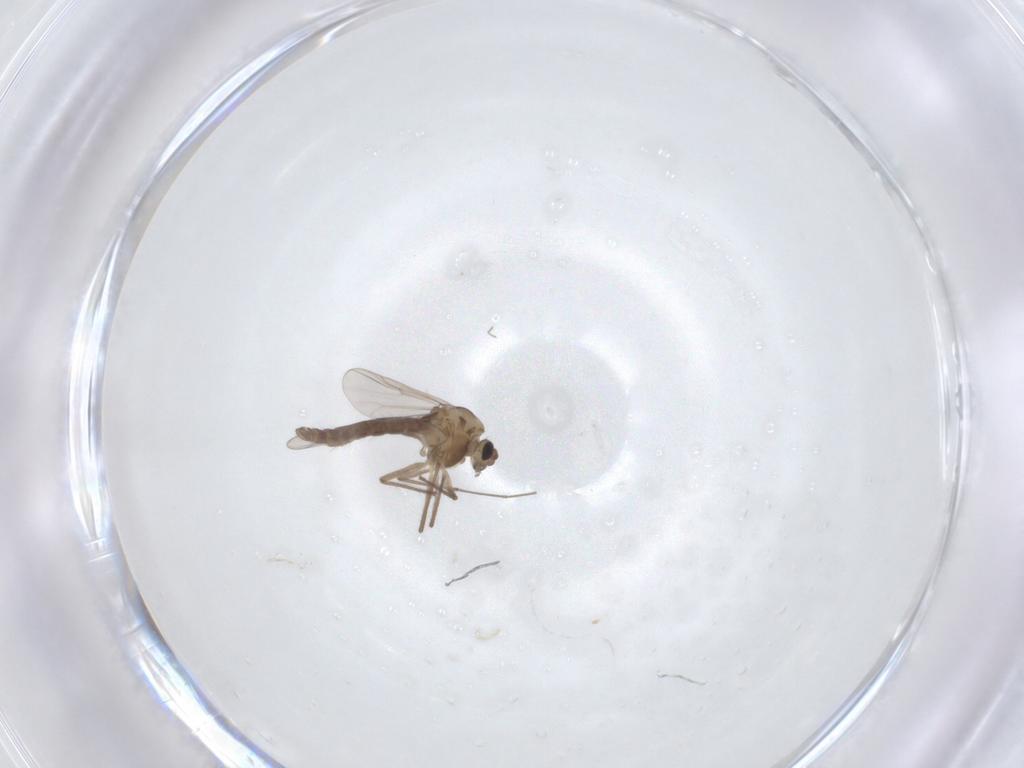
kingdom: Animalia
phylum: Arthropoda
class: Insecta
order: Diptera
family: Chironomidae
